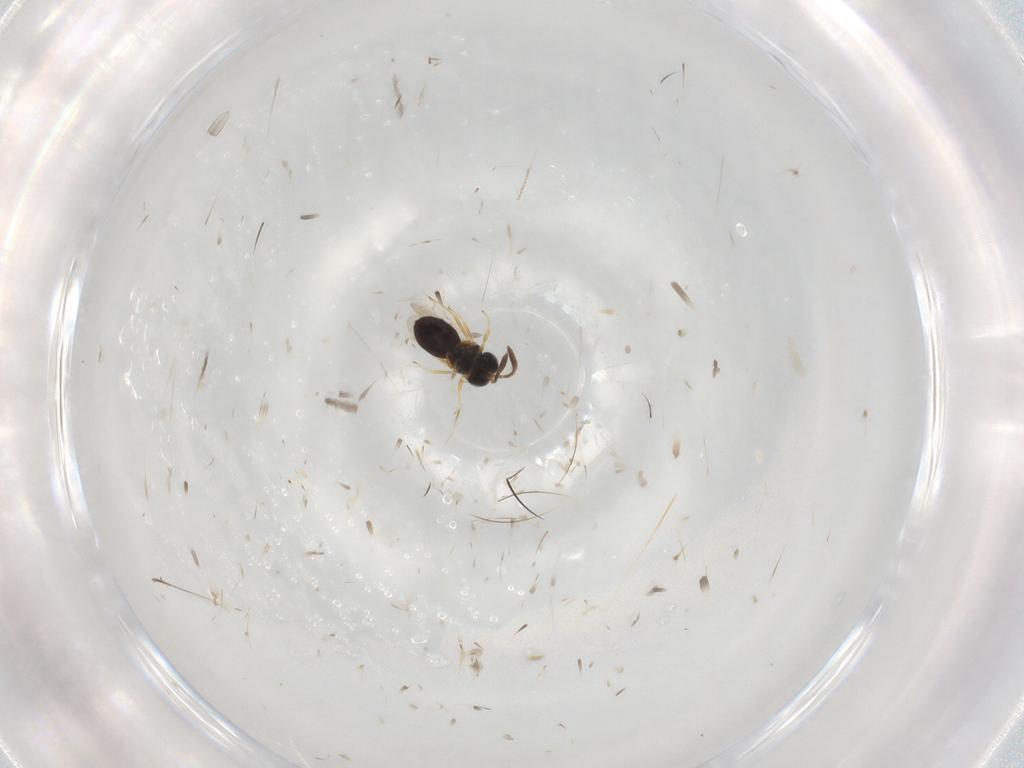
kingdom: Animalia
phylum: Arthropoda
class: Insecta
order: Hymenoptera
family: Scelionidae
